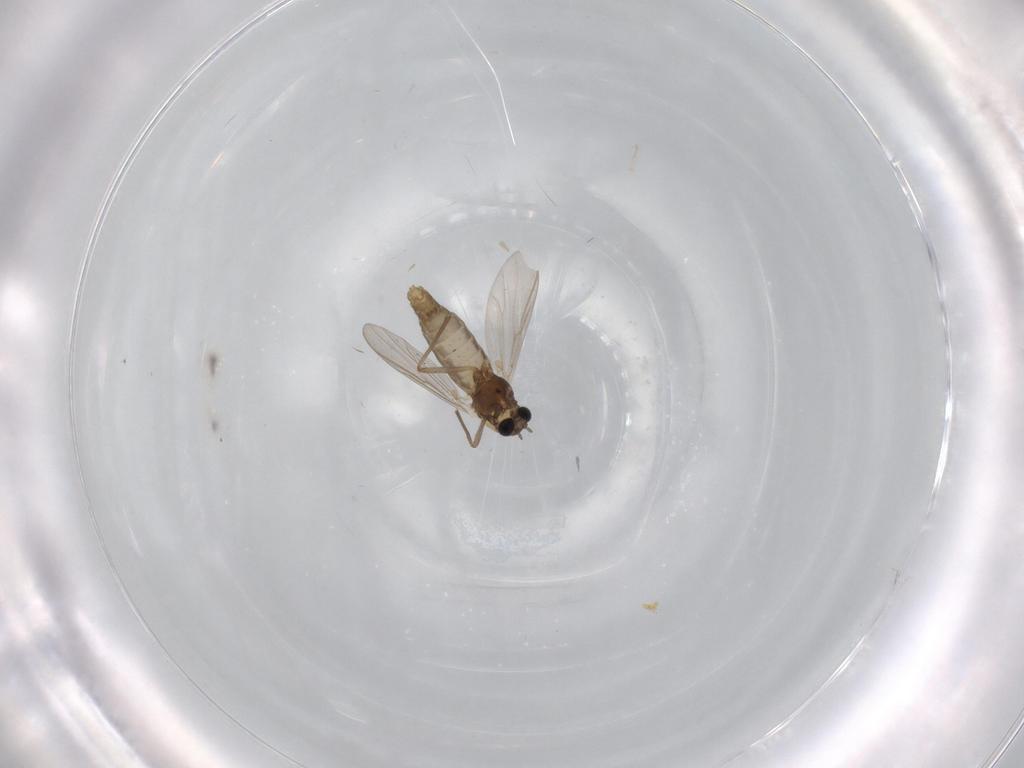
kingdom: Animalia
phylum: Arthropoda
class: Insecta
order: Diptera
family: Chironomidae
